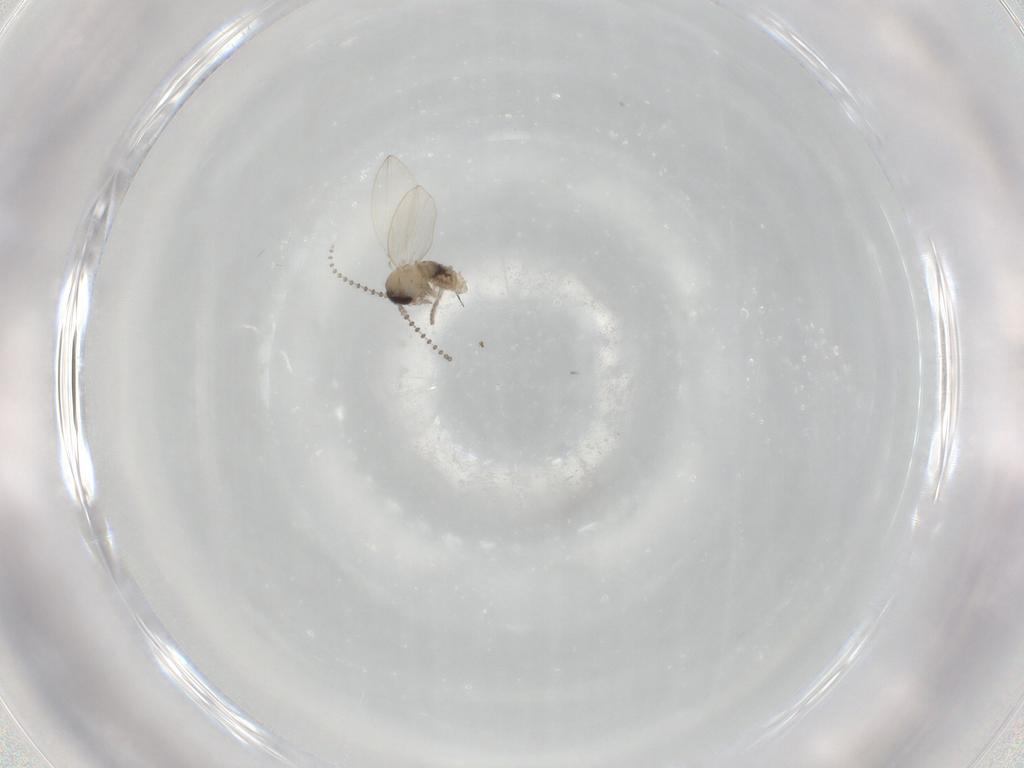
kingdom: Animalia
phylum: Arthropoda
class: Insecta
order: Diptera
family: Psychodidae
